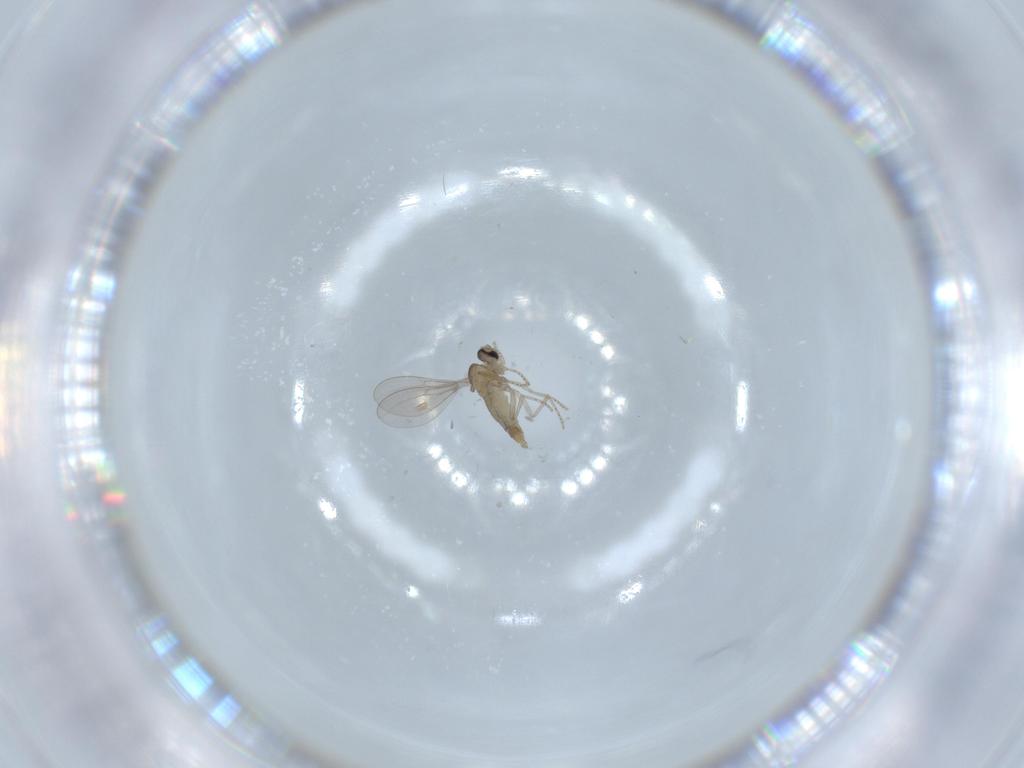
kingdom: Animalia
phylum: Arthropoda
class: Insecta
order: Diptera
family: Cecidomyiidae
